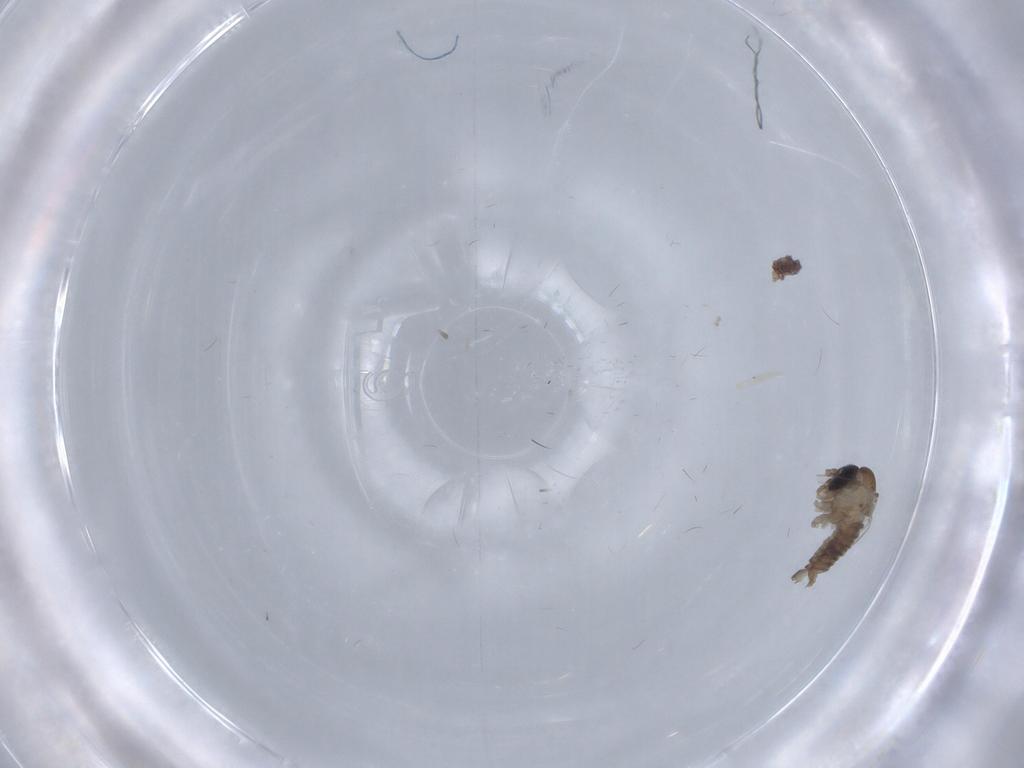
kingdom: Animalia
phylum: Arthropoda
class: Insecta
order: Diptera
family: Psychodidae
